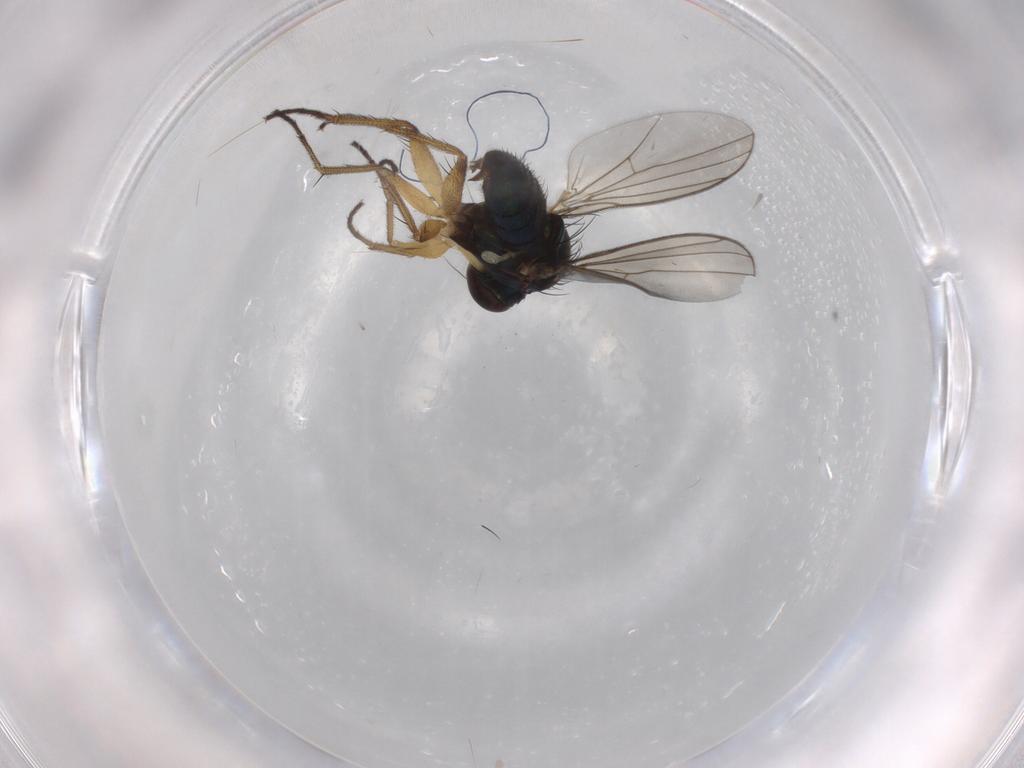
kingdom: Animalia
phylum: Arthropoda
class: Insecta
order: Diptera
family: Dolichopodidae
